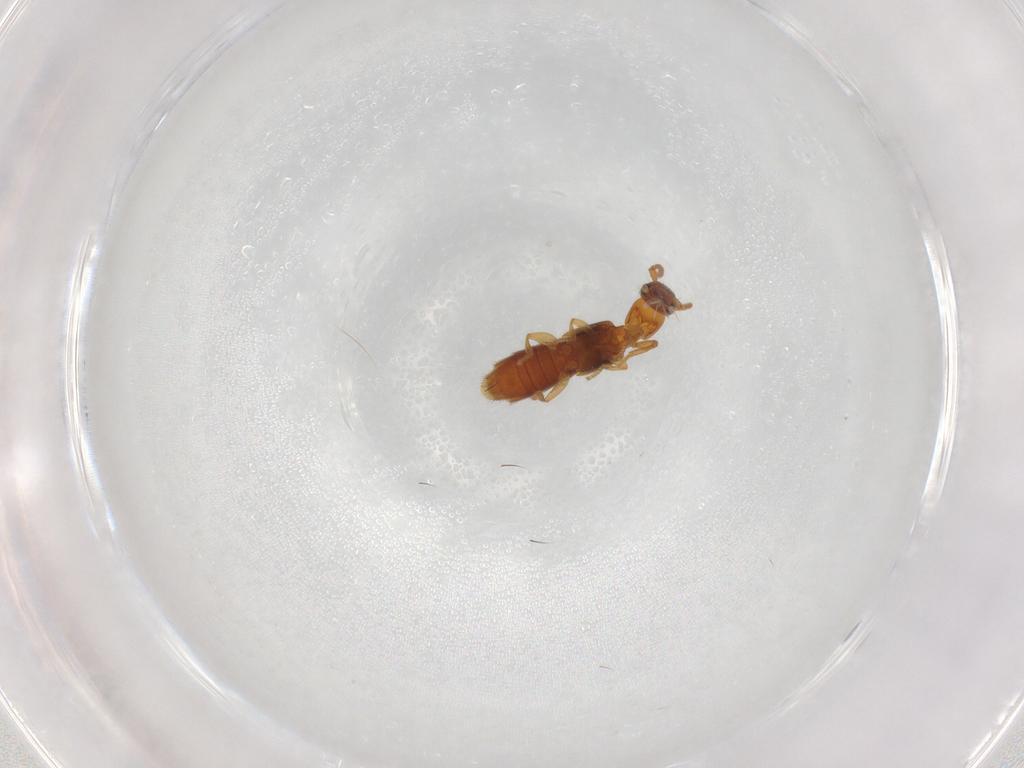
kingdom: Animalia
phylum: Arthropoda
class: Insecta
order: Coleoptera
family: Staphylinidae
